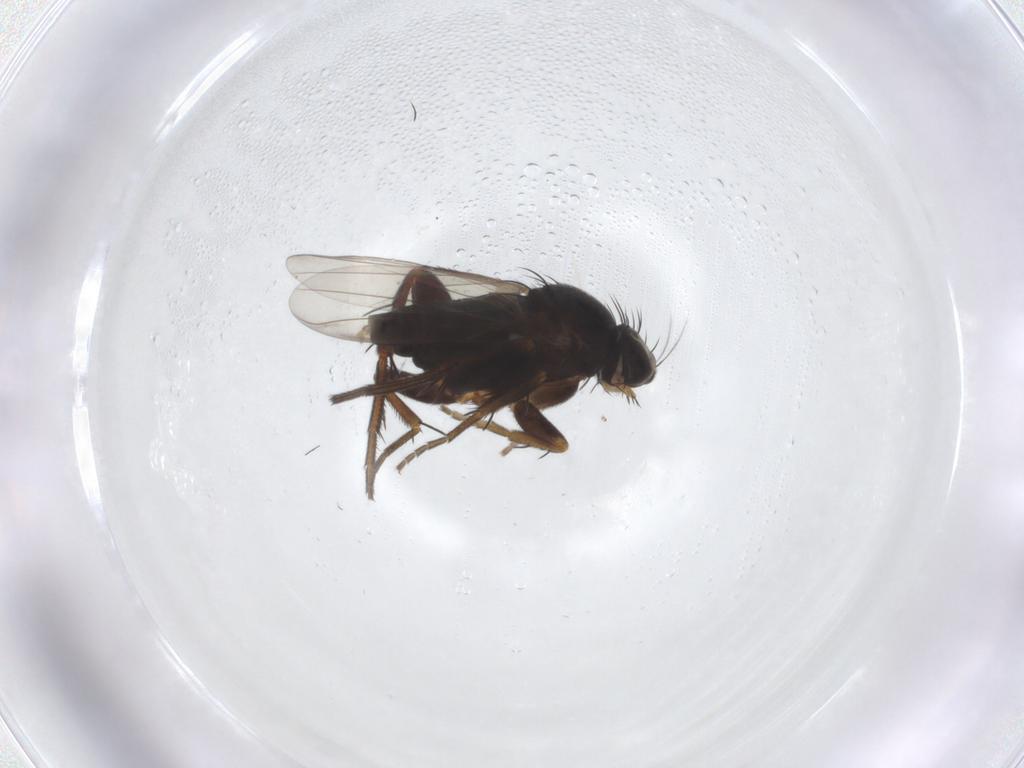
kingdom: Animalia
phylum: Arthropoda
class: Insecta
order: Diptera
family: Phoridae
